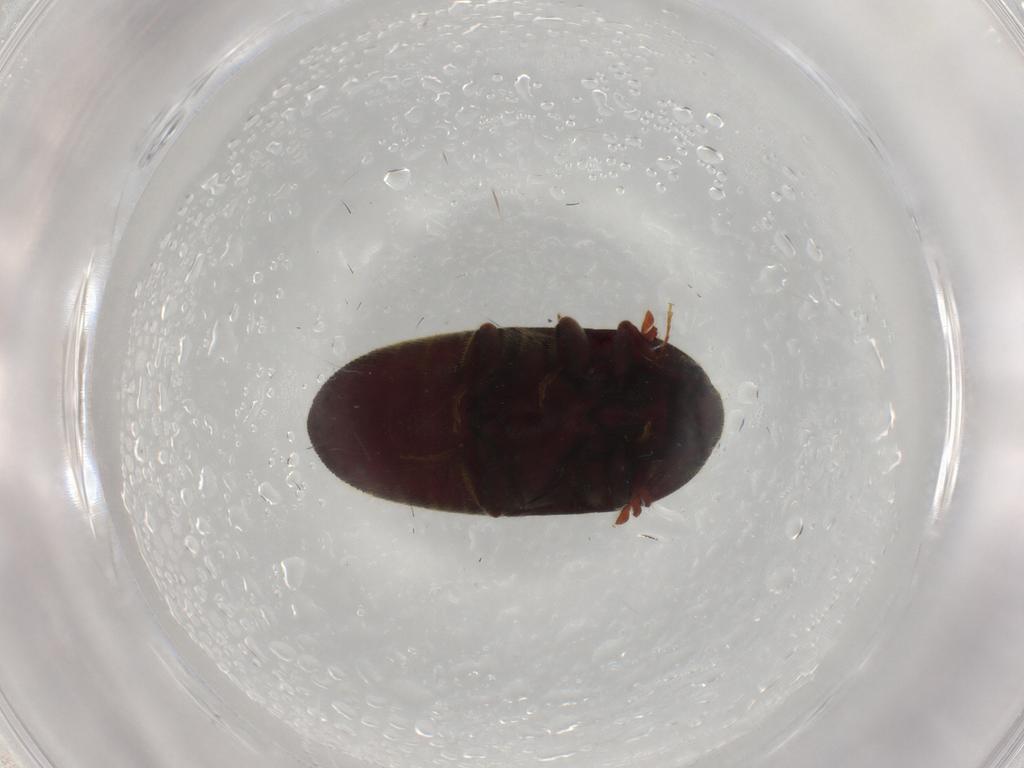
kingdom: Animalia
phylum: Arthropoda
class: Insecta
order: Coleoptera
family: Throscidae
